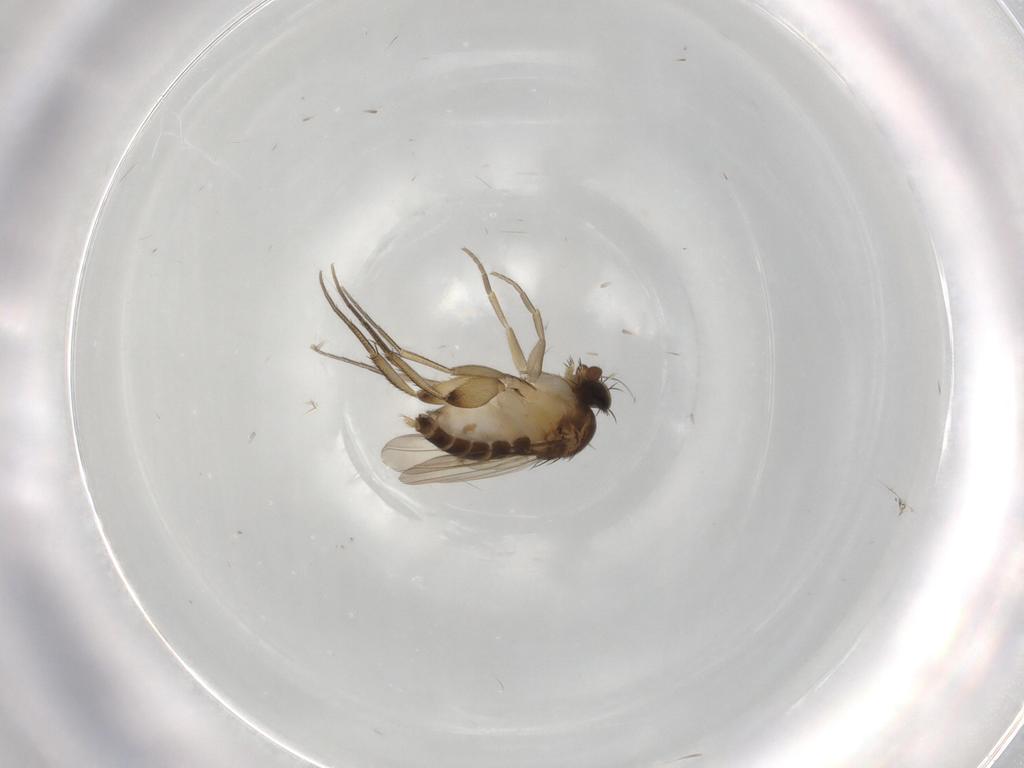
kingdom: Animalia
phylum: Arthropoda
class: Insecta
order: Diptera
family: Phoridae
